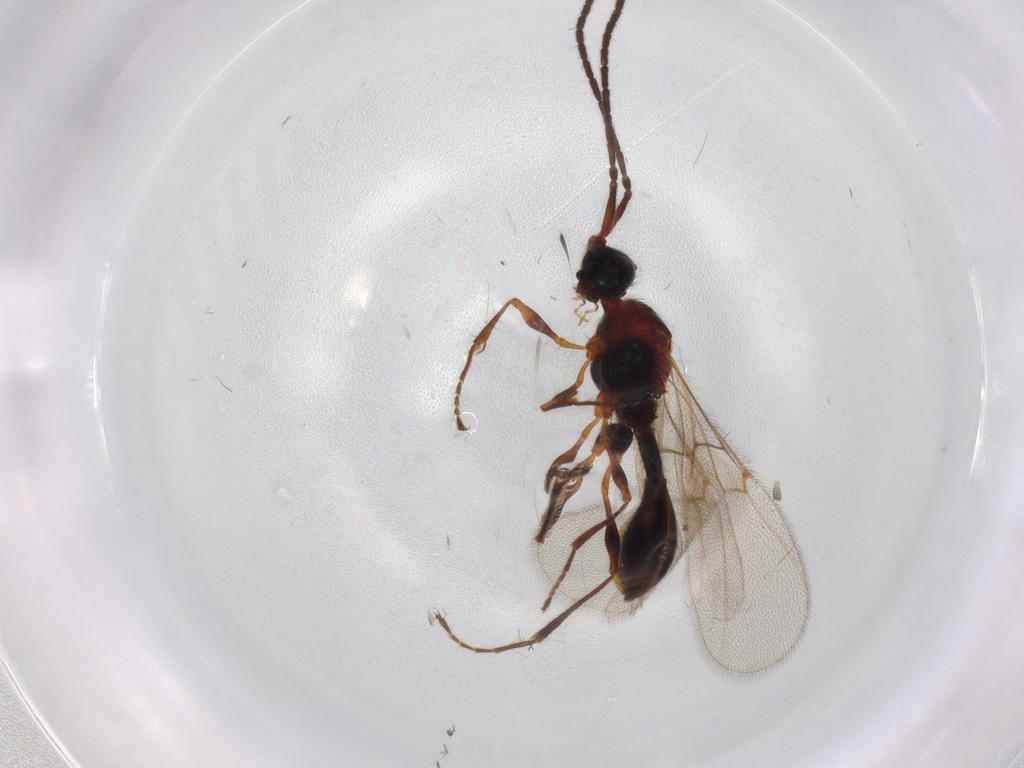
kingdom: Animalia
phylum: Arthropoda
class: Insecta
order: Hymenoptera
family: Diapriidae
